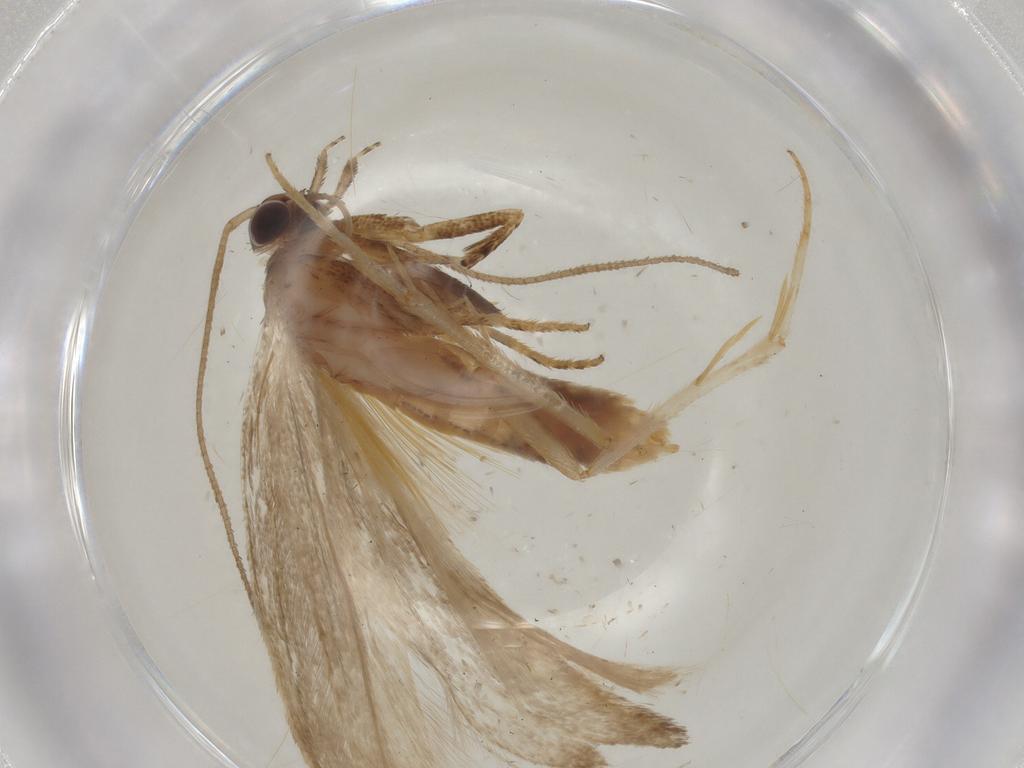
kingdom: Animalia
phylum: Arthropoda
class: Insecta
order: Lepidoptera
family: Gelechiidae
